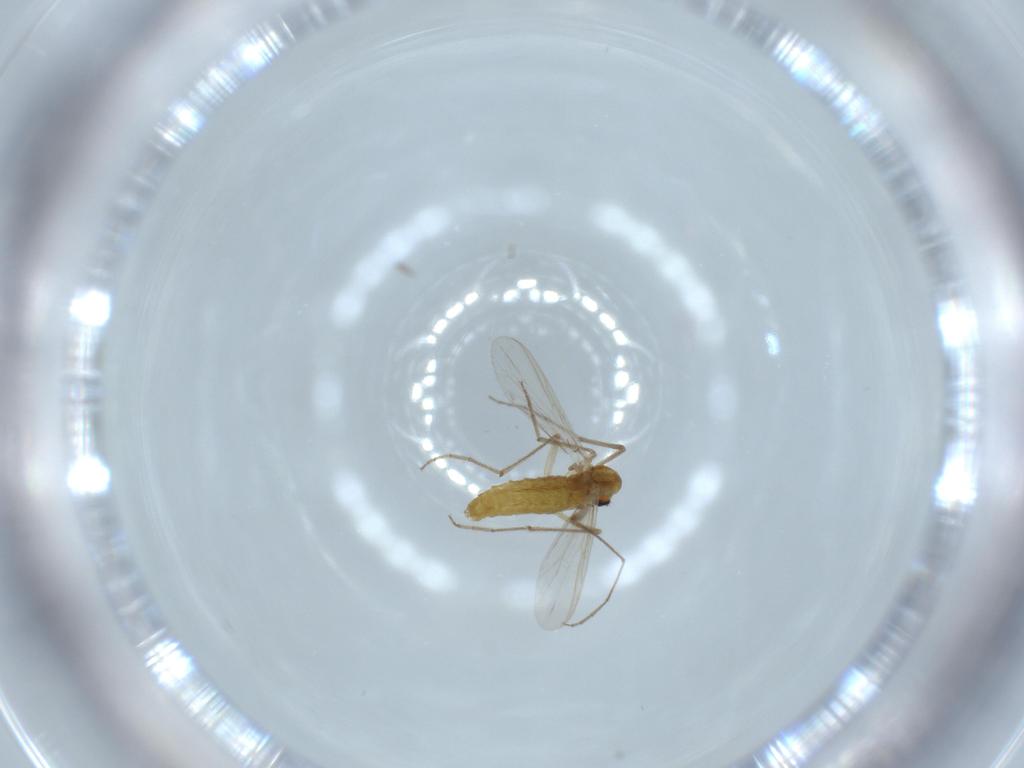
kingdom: Animalia
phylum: Arthropoda
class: Insecta
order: Diptera
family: Chironomidae
